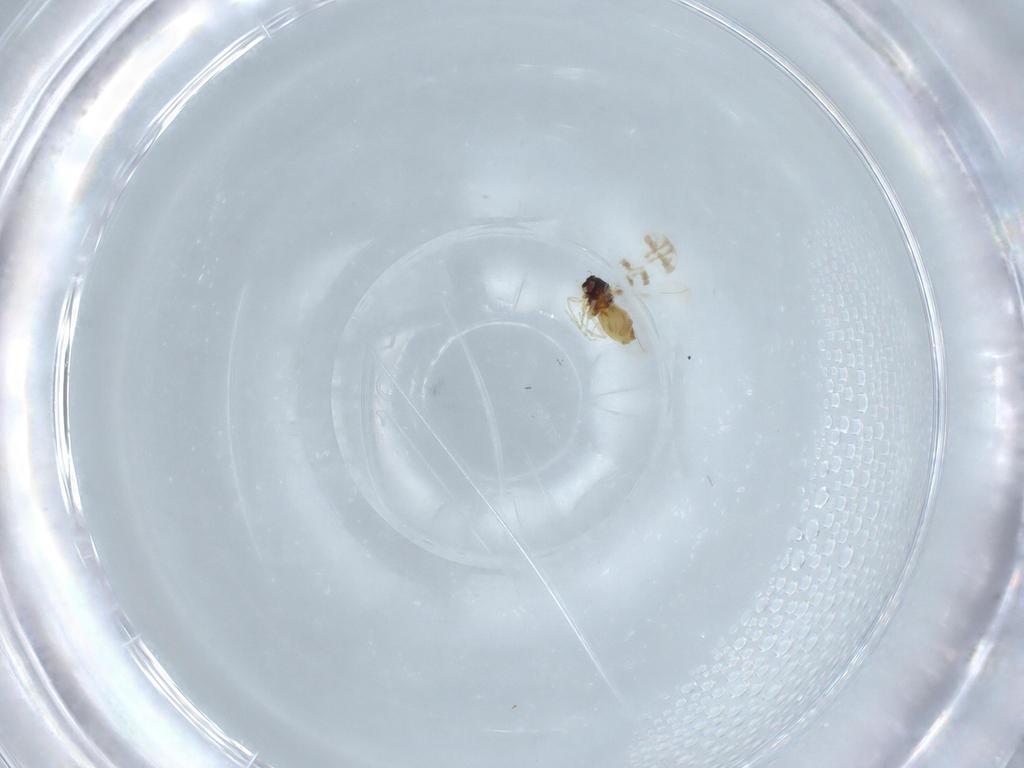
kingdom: Animalia
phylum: Arthropoda
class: Insecta
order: Hemiptera
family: Aleyrodidae
